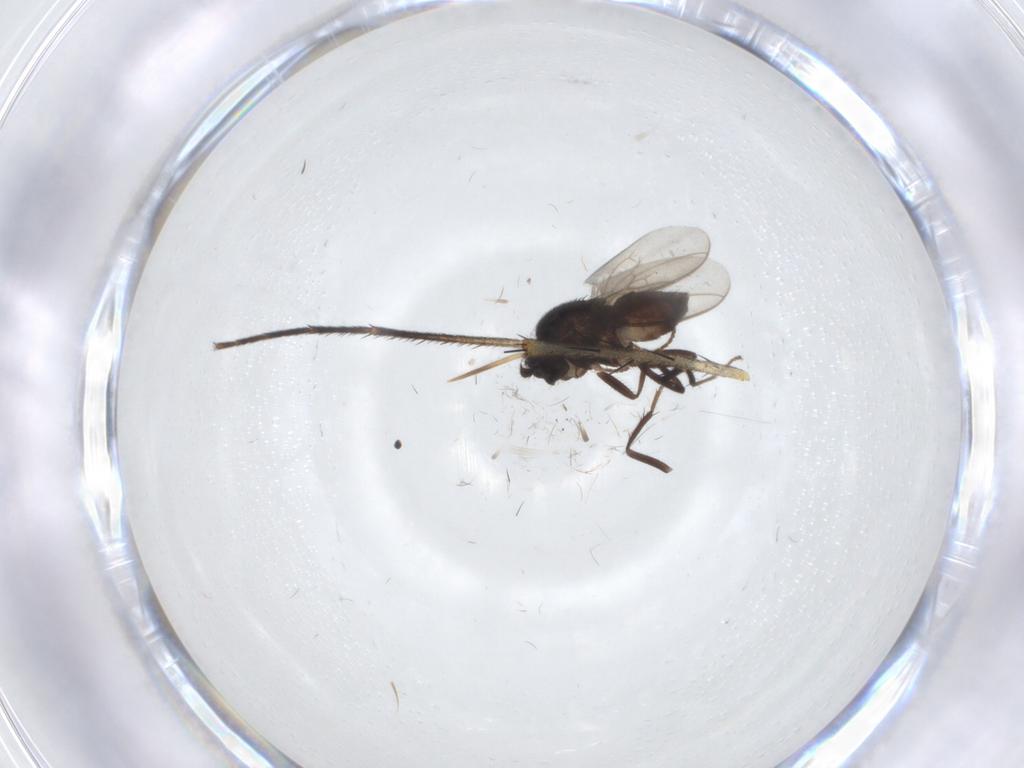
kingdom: Animalia
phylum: Arthropoda
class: Insecta
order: Diptera
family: Mycetophilidae
